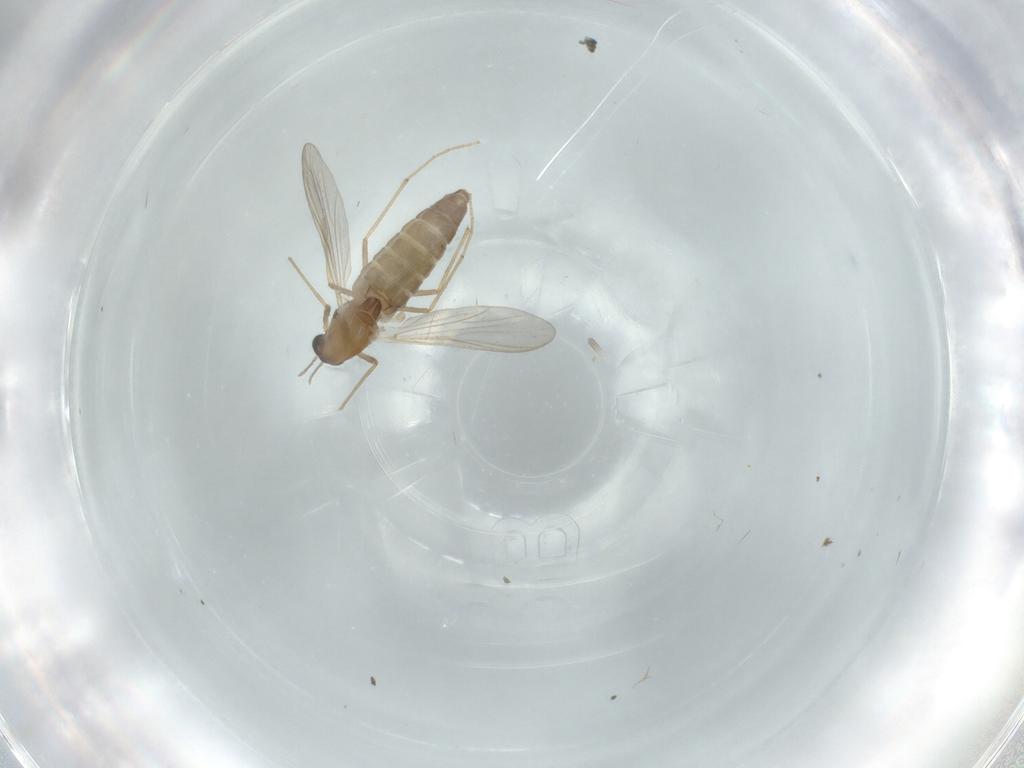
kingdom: Animalia
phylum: Arthropoda
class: Insecta
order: Diptera
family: Chironomidae
